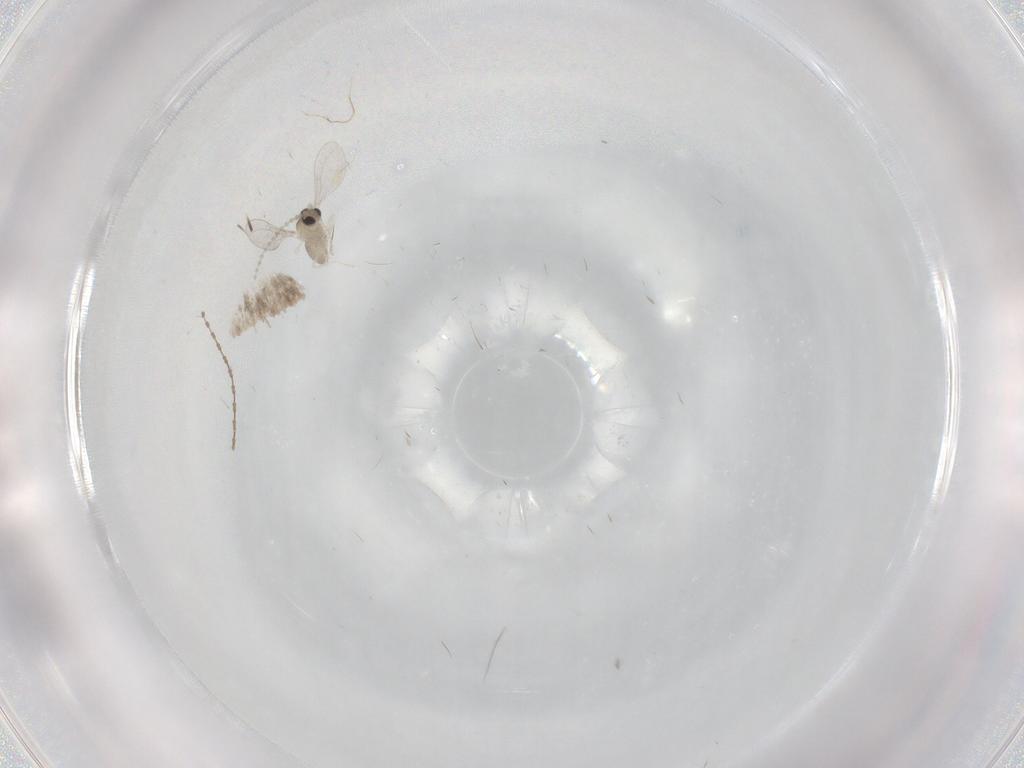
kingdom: Animalia
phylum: Arthropoda
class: Insecta
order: Diptera
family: Cecidomyiidae
